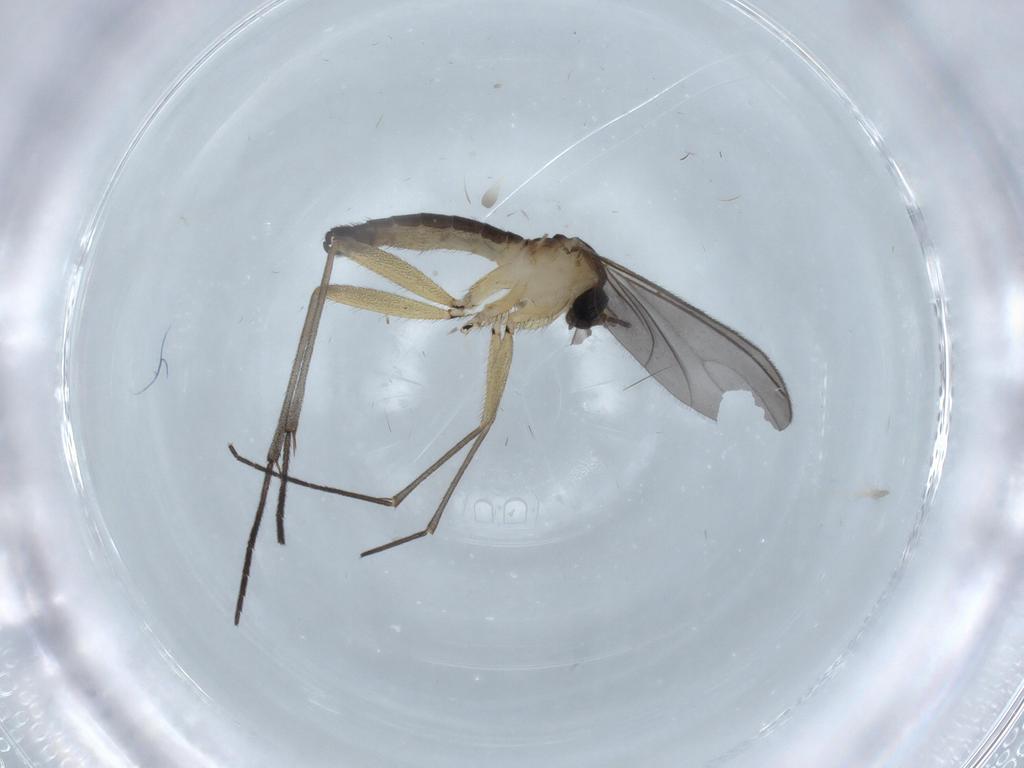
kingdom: Animalia
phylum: Arthropoda
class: Insecta
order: Diptera
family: Sciaridae
